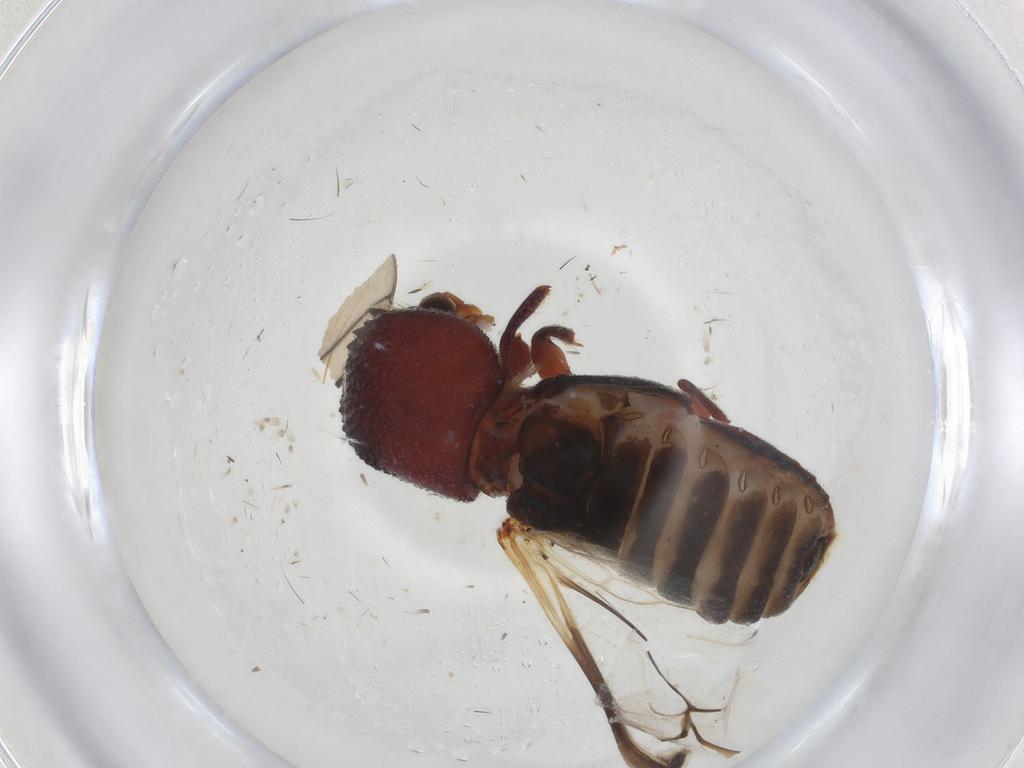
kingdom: Animalia
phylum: Arthropoda
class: Insecta
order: Coleoptera
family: Bostrichidae
